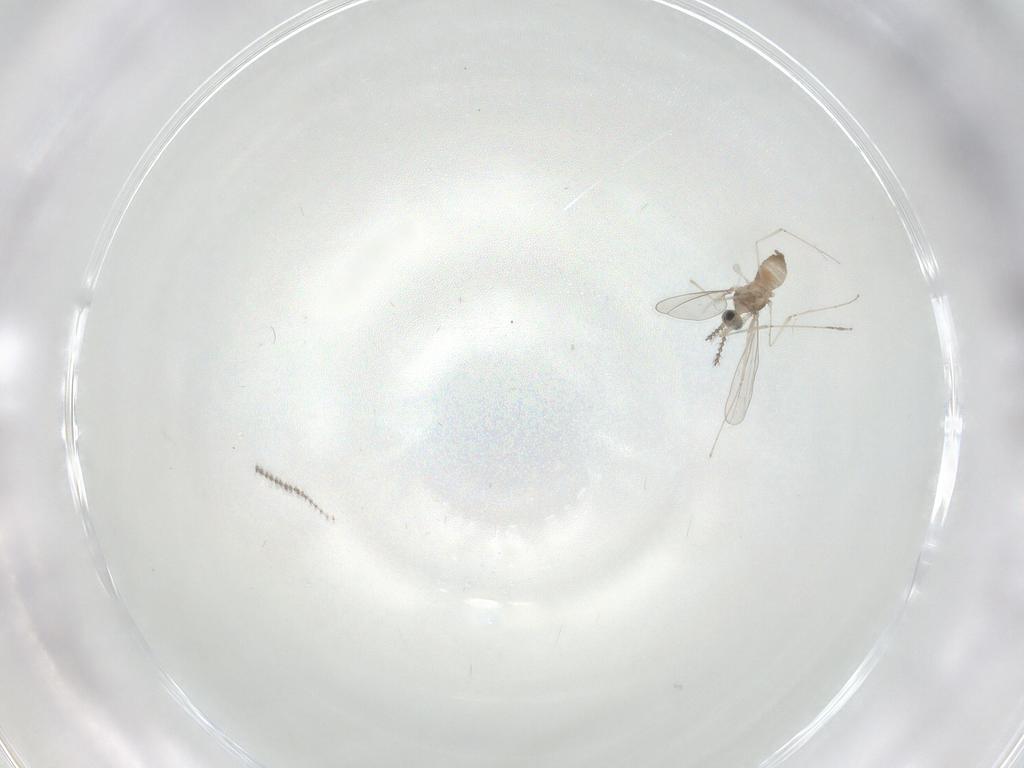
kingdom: Animalia
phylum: Arthropoda
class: Insecta
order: Diptera
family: Cecidomyiidae
